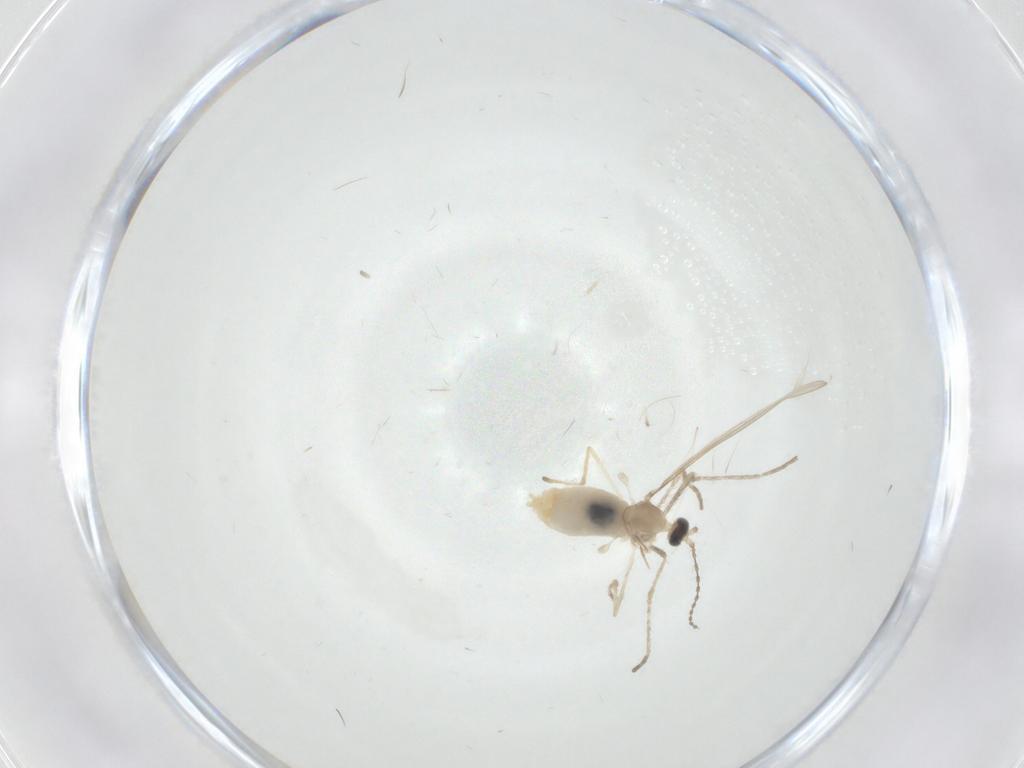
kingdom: Animalia
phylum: Arthropoda
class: Insecta
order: Diptera
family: Cecidomyiidae
